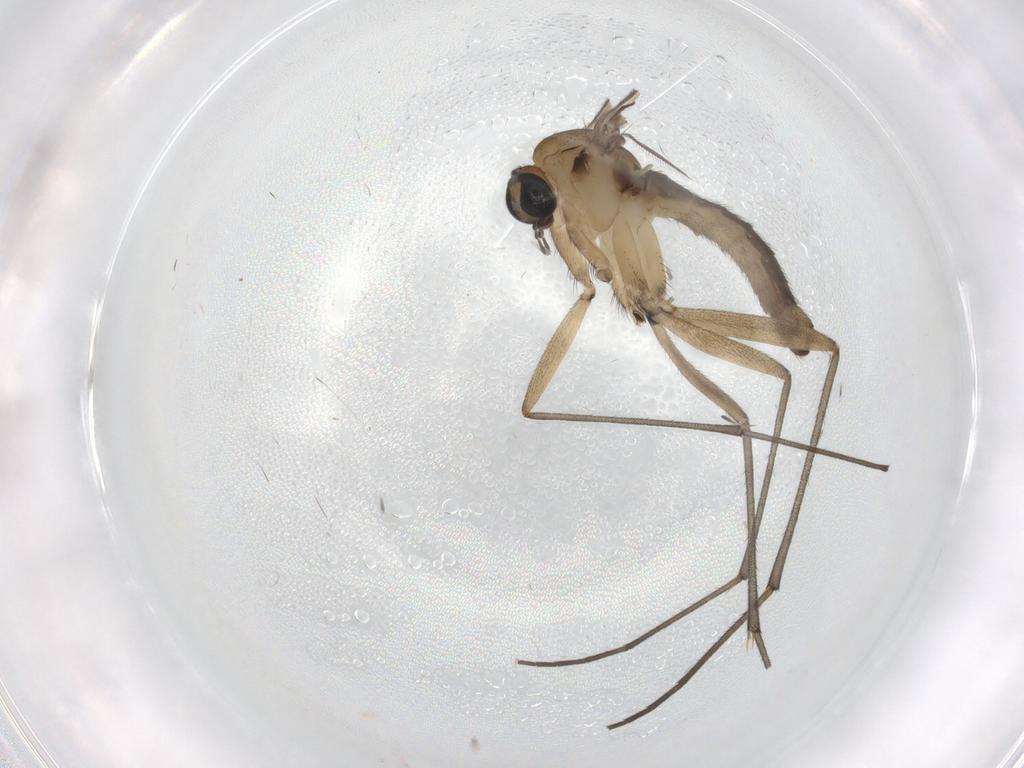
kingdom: Animalia
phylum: Arthropoda
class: Insecta
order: Diptera
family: Sciaridae
